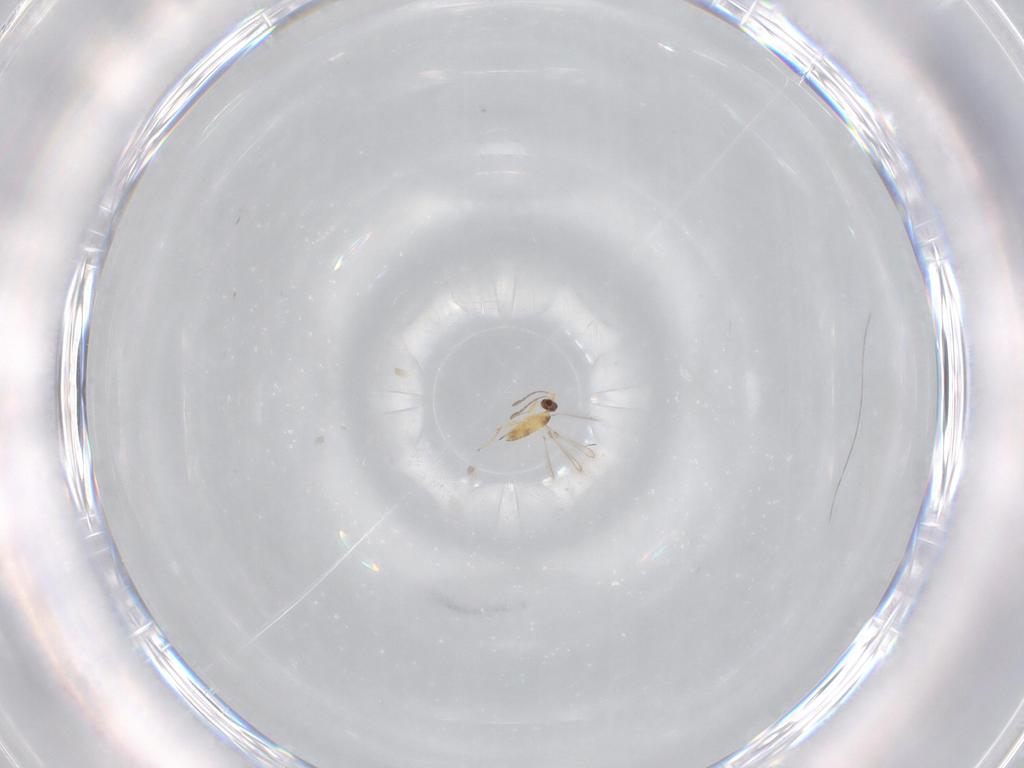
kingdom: Animalia
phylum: Arthropoda
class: Insecta
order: Hymenoptera
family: Mymaridae
